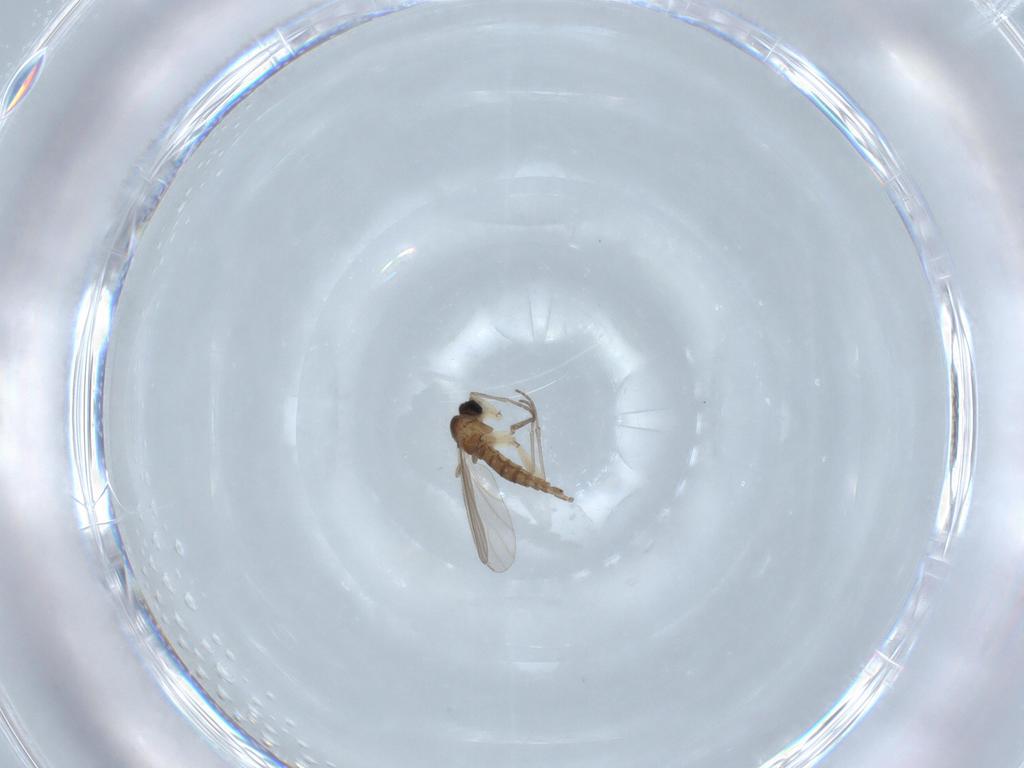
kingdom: Animalia
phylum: Arthropoda
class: Insecta
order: Diptera
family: Sciaridae
